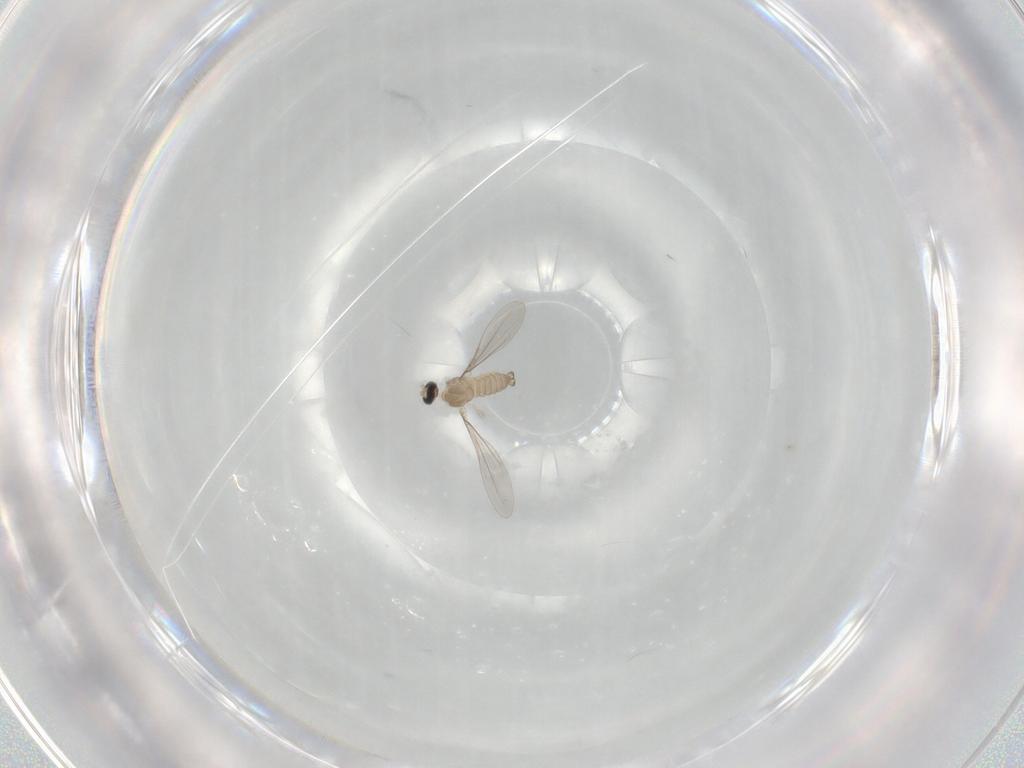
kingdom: Animalia
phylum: Arthropoda
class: Insecta
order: Diptera
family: Cecidomyiidae
